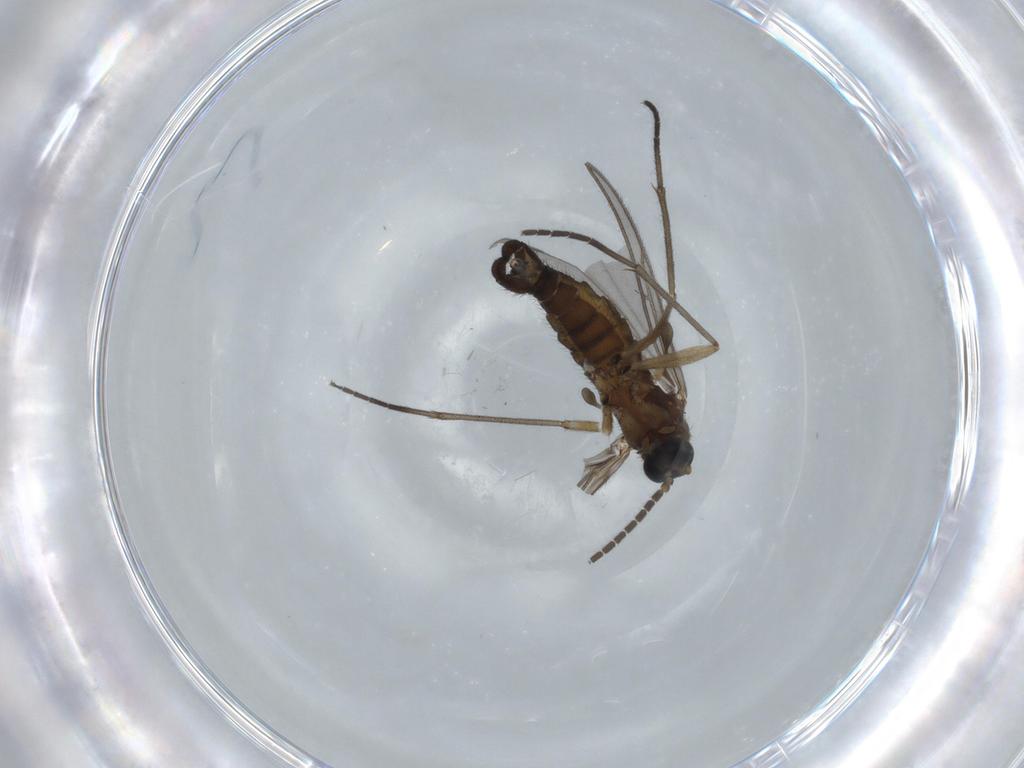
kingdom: Animalia
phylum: Arthropoda
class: Insecta
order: Diptera
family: Sciaridae
